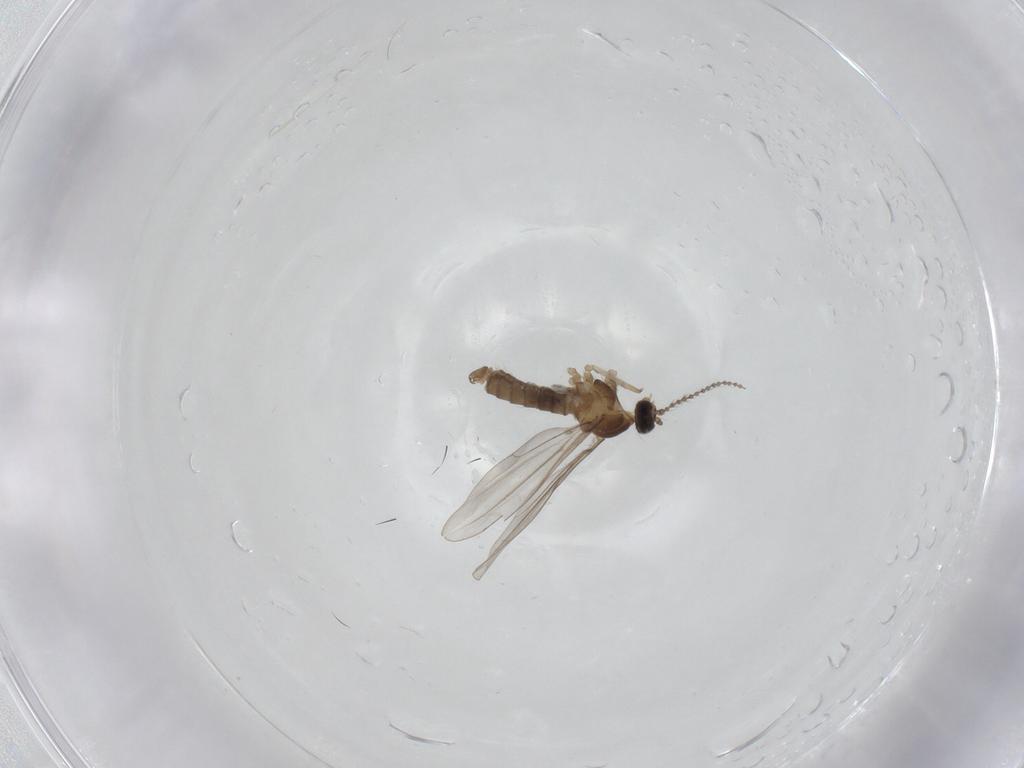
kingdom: Animalia
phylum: Arthropoda
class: Insecta
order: Diptera
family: Cecidomyiidae
